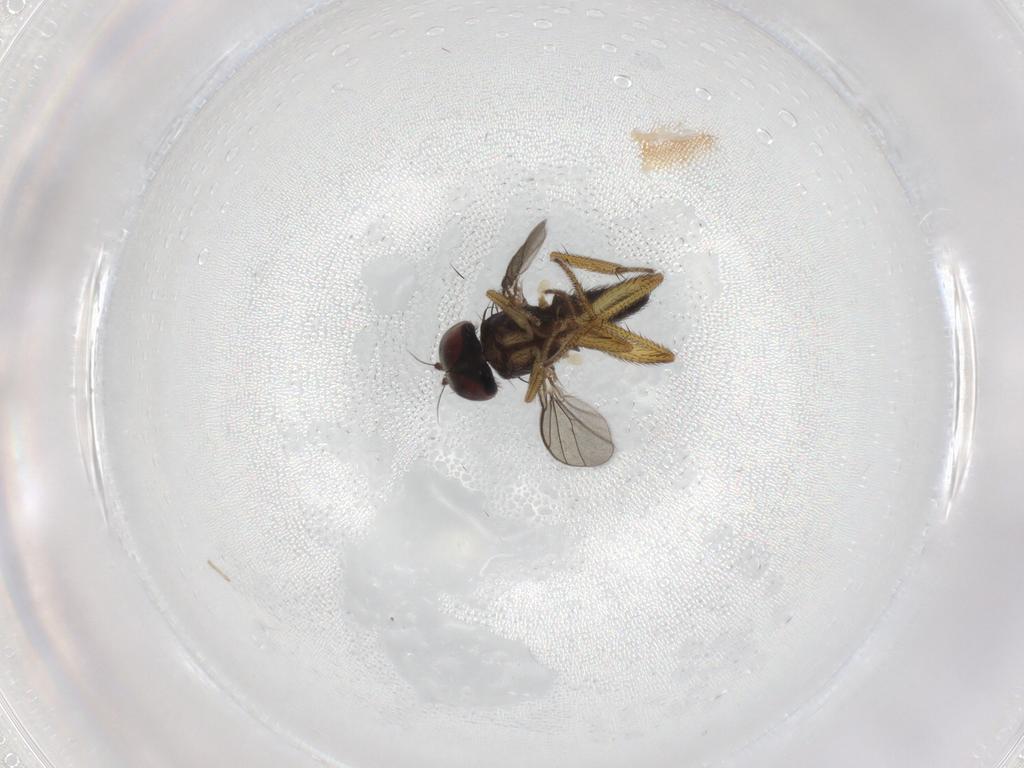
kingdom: Animalia
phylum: Arthropoda
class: Insecta
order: Diptera
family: Dolichopodidae
